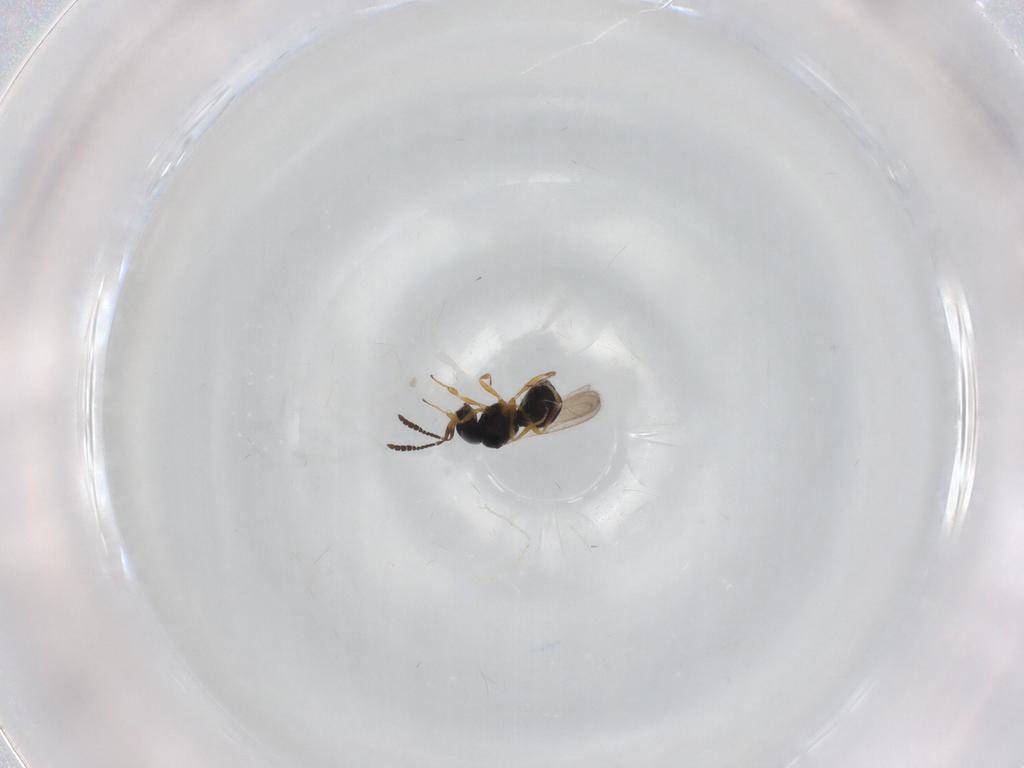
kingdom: Animalia
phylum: Arthropoda
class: Insecta
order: Hymenoptera
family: Scelionidae
